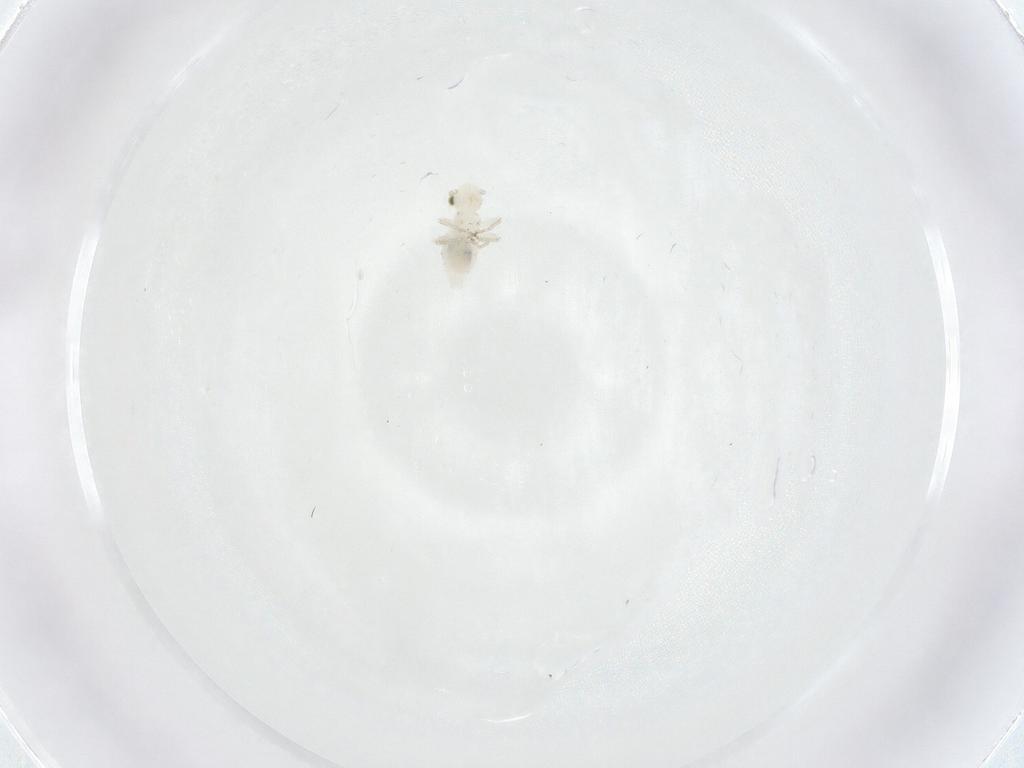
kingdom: Animalia
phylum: Arthropoda
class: Insecta
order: Psocodea
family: Caeciliusidae
